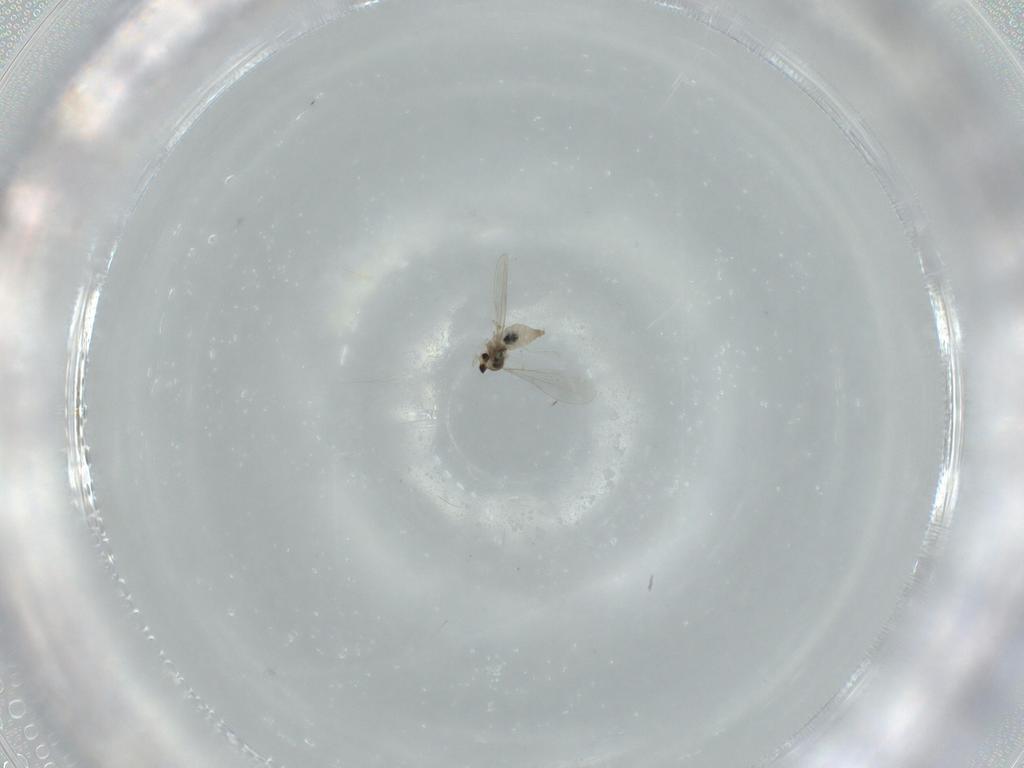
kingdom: Animalia
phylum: Arthropoda
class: Insecta
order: Diptera
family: Cecidomyiidae
